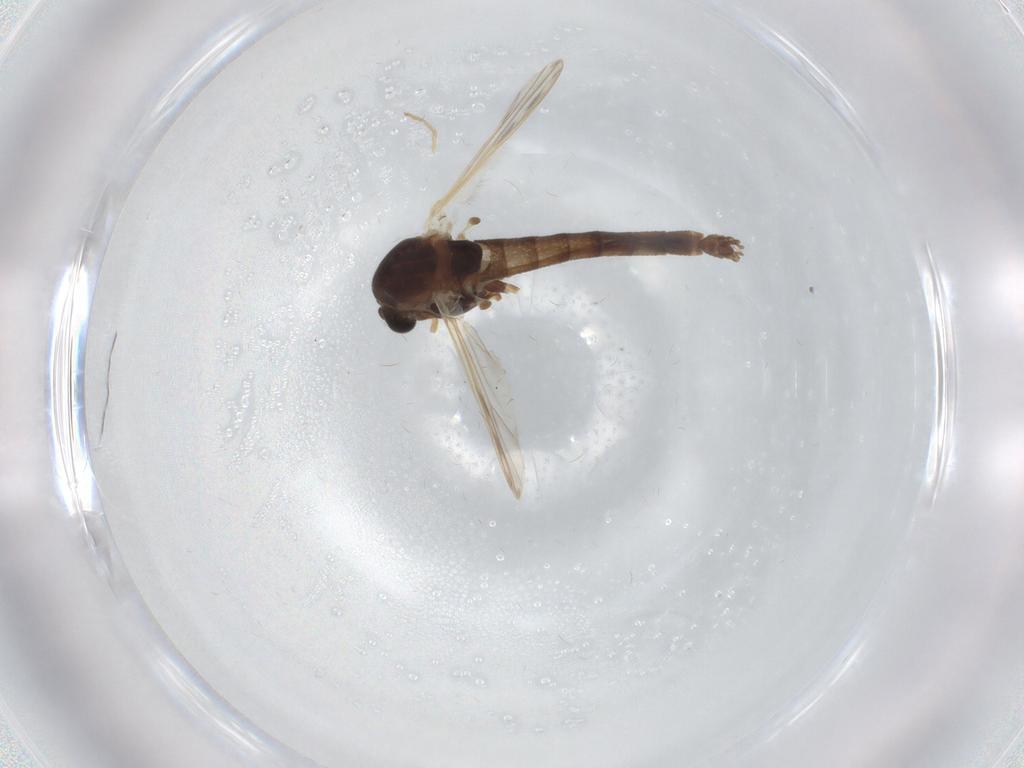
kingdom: Animalia
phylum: Arthropoda
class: Insecta
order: Diptera
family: Chironomidae
